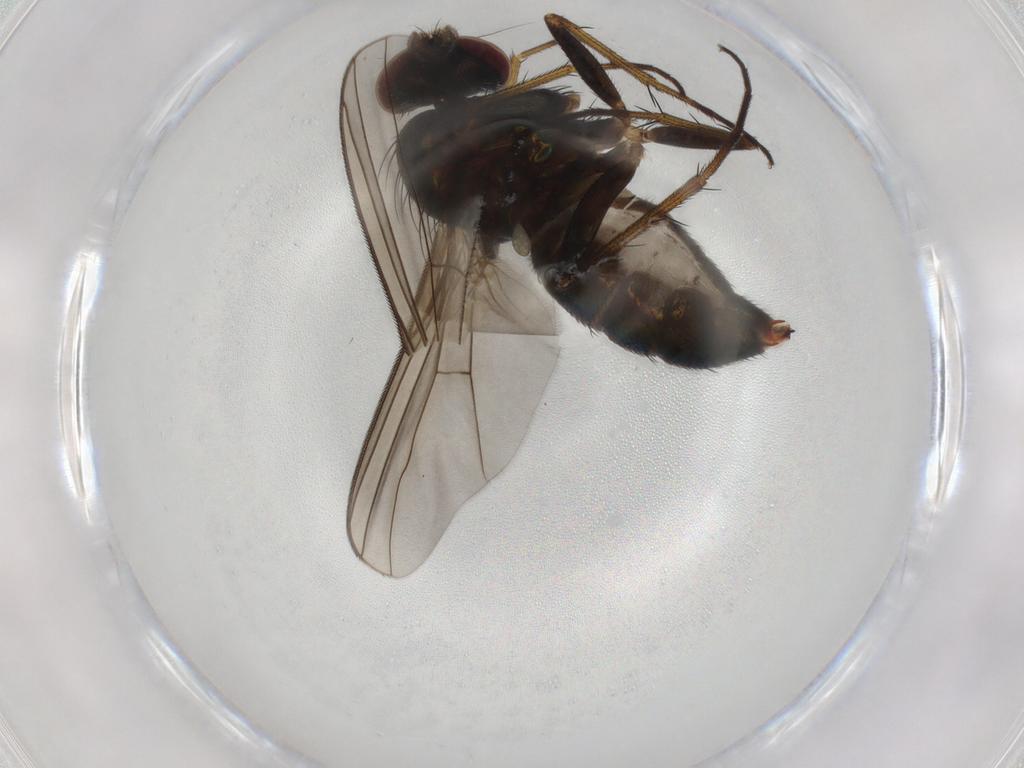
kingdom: Animalia
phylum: Arthropoda
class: Insecta
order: Diptera
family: Dolichopodidae
